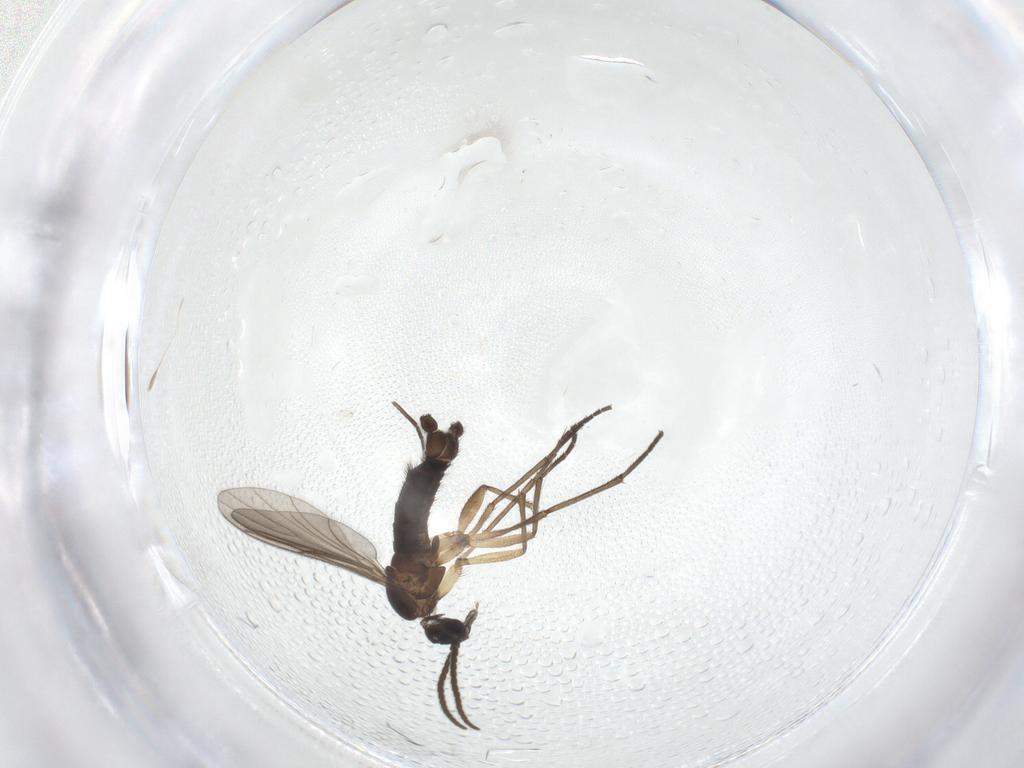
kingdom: Animalia
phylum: Arthropoda
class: Insecta
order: Diptera
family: Sciaridae
